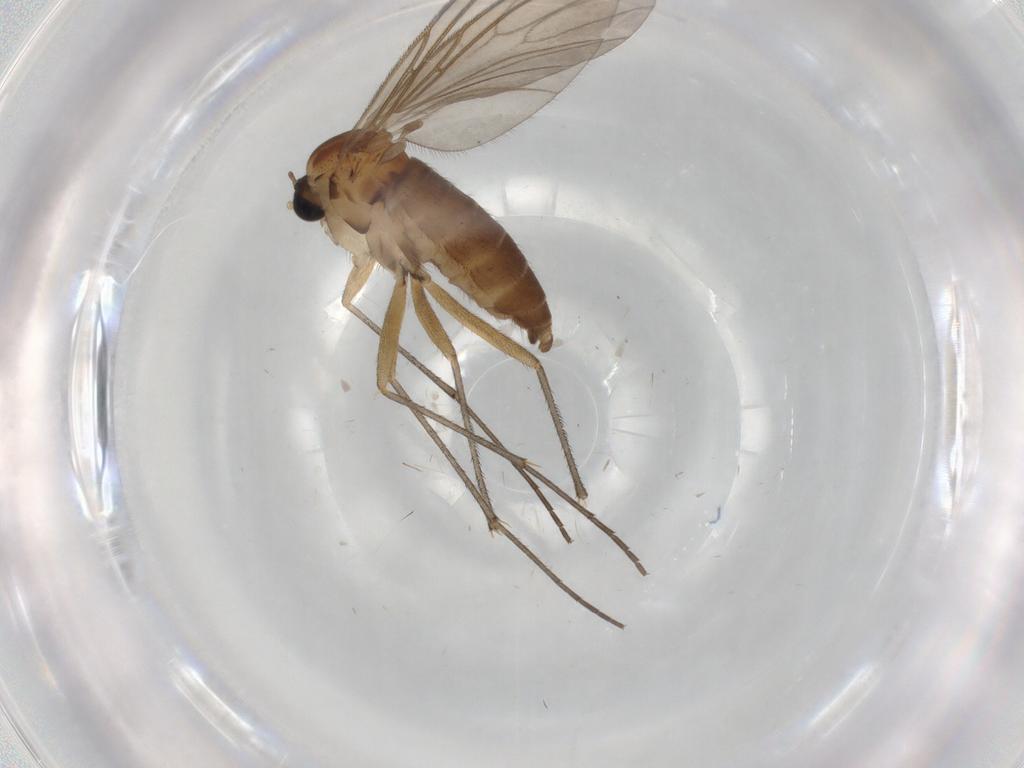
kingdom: Animalia
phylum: Arthropoda
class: Insecta
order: Diptera
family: Sciaridae
